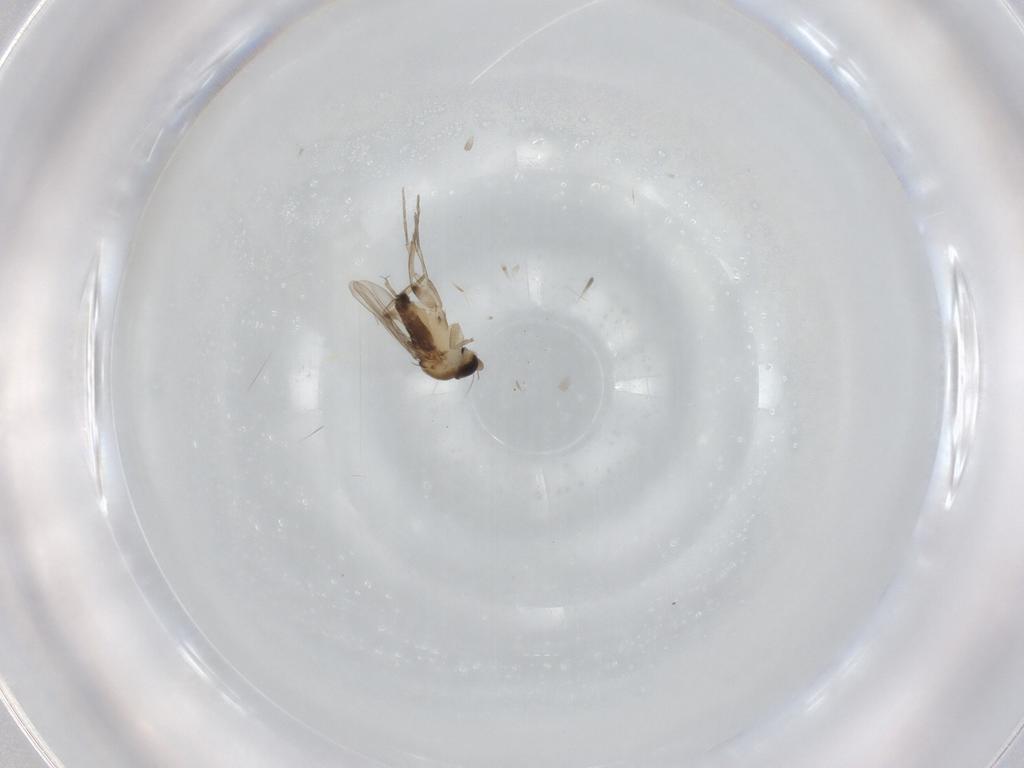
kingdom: Animalia
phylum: Arthropoda
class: Insecta
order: Diptera
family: Phoridae
